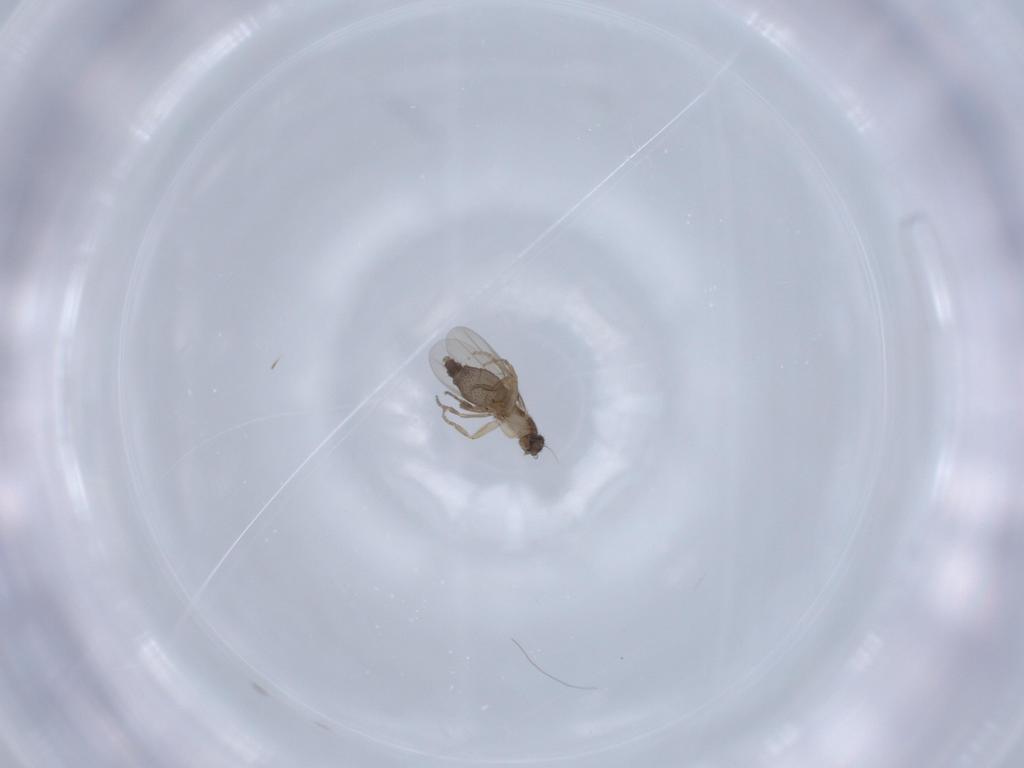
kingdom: Animalia
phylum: Arthropoda
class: Insecta
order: Diptera
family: Phoridae
